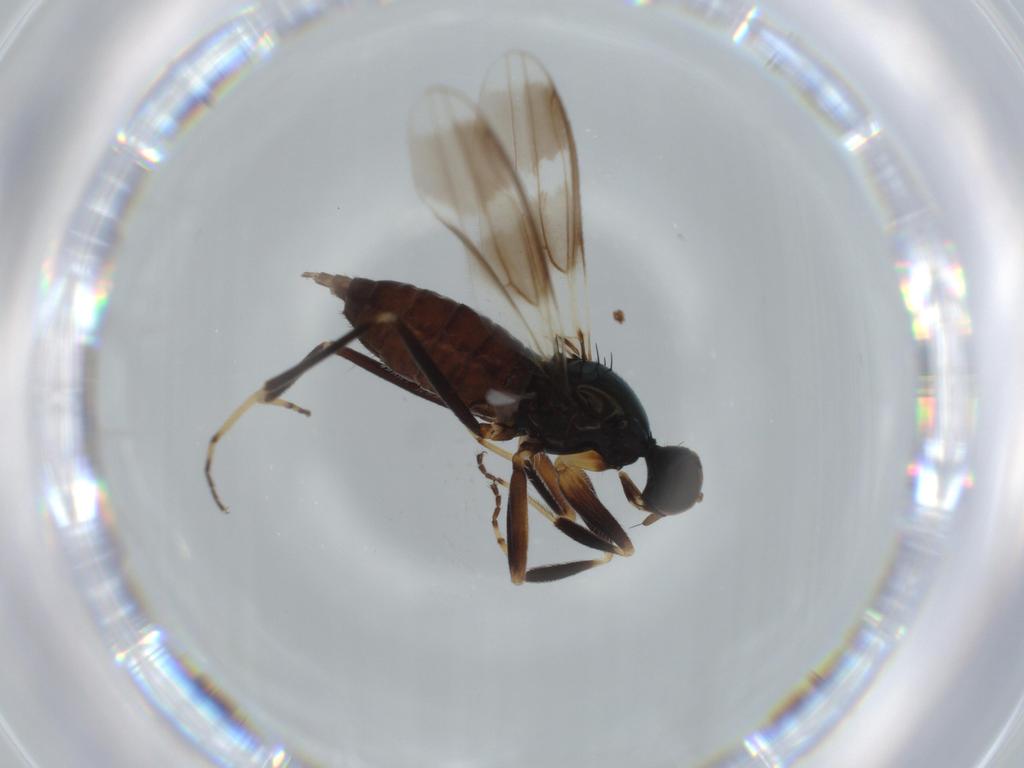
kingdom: Animalia
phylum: Arthropoda
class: Insecta
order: Diptera
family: Hybotidae
